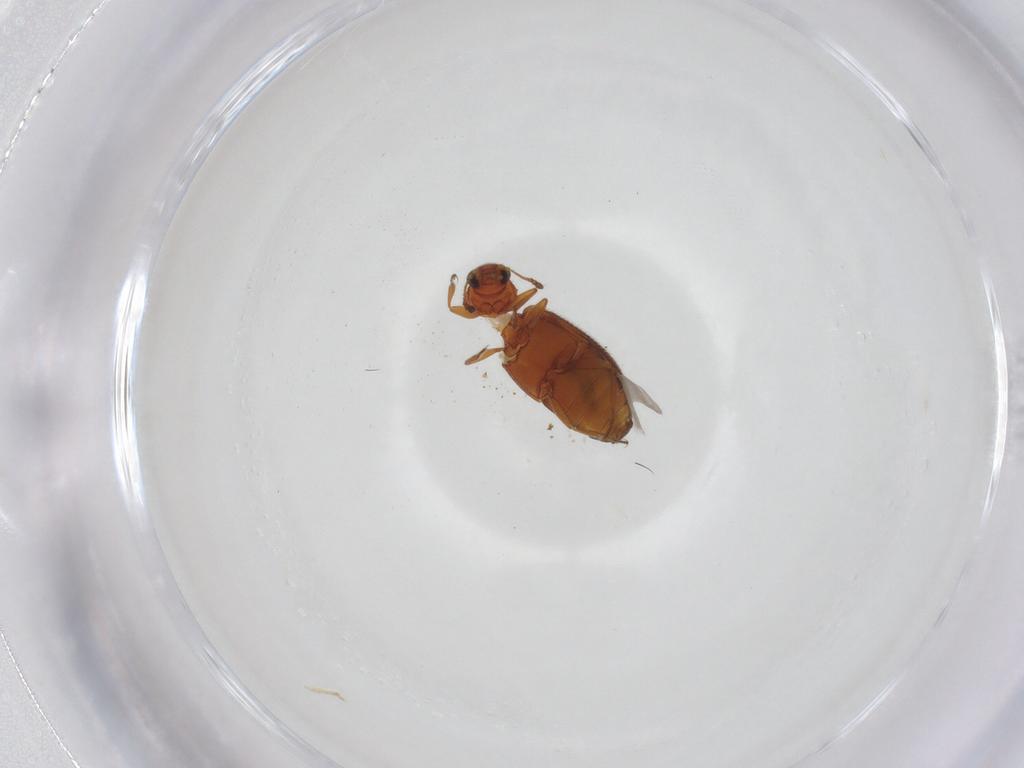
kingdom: Animalia
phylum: Arthropoda
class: Insecta
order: Coleoptera
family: Latridiidae
